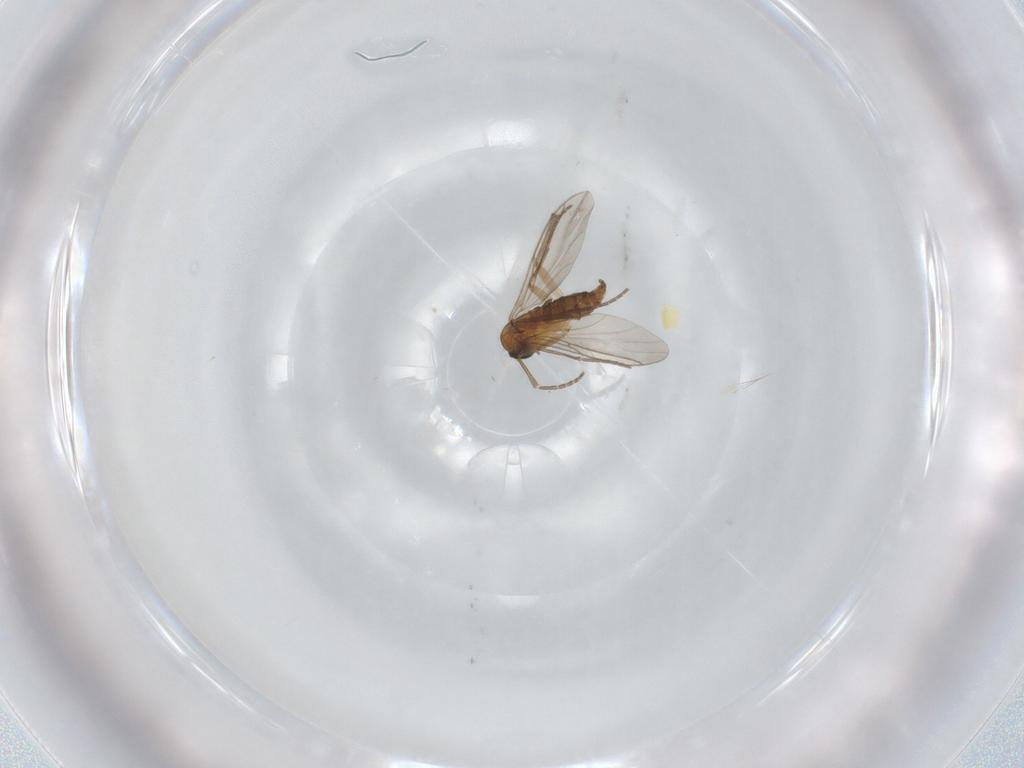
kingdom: Animalia
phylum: Arthropoda
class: Insecta
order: Diptera
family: Sciaridae
